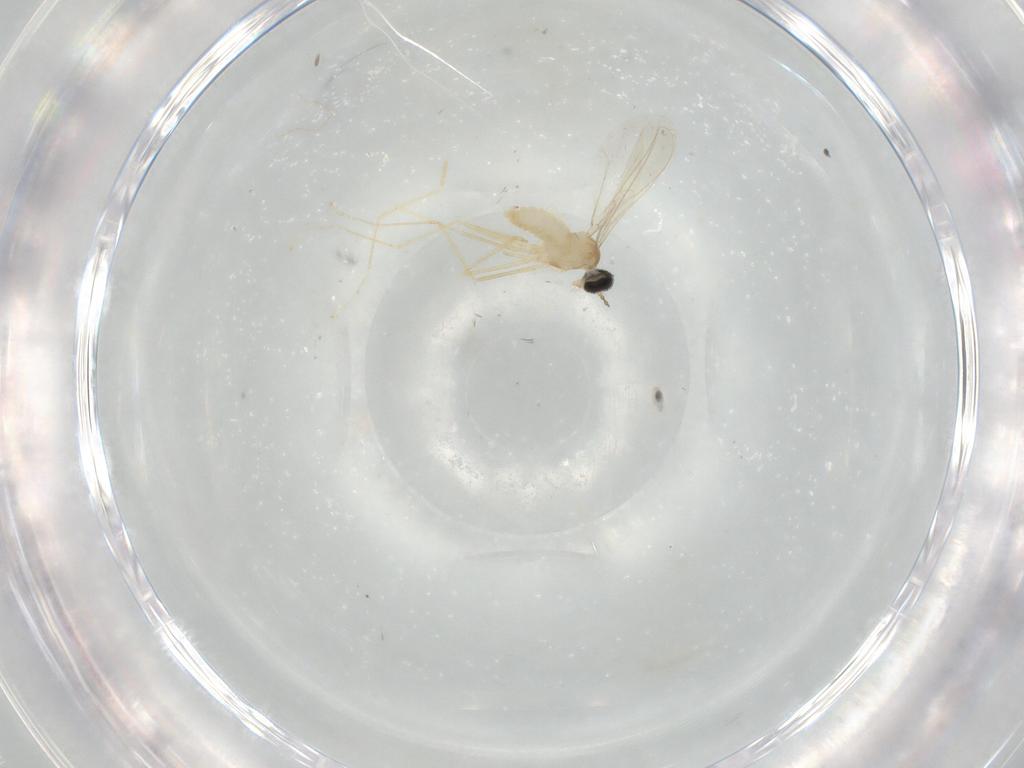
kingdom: Animalia
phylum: Arthropoda
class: Insecta
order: Diptera
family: Cecidomyiidae
